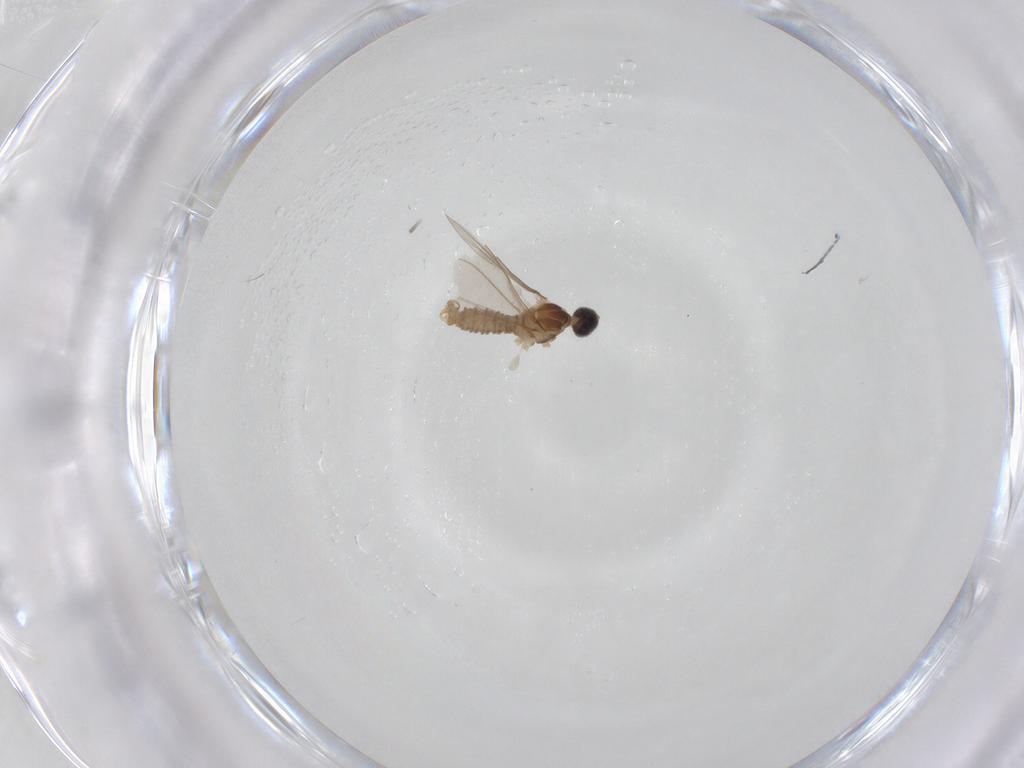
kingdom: Animalia
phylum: Arthropoda
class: Insecta
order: Diptera
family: Cecidomyiidae
